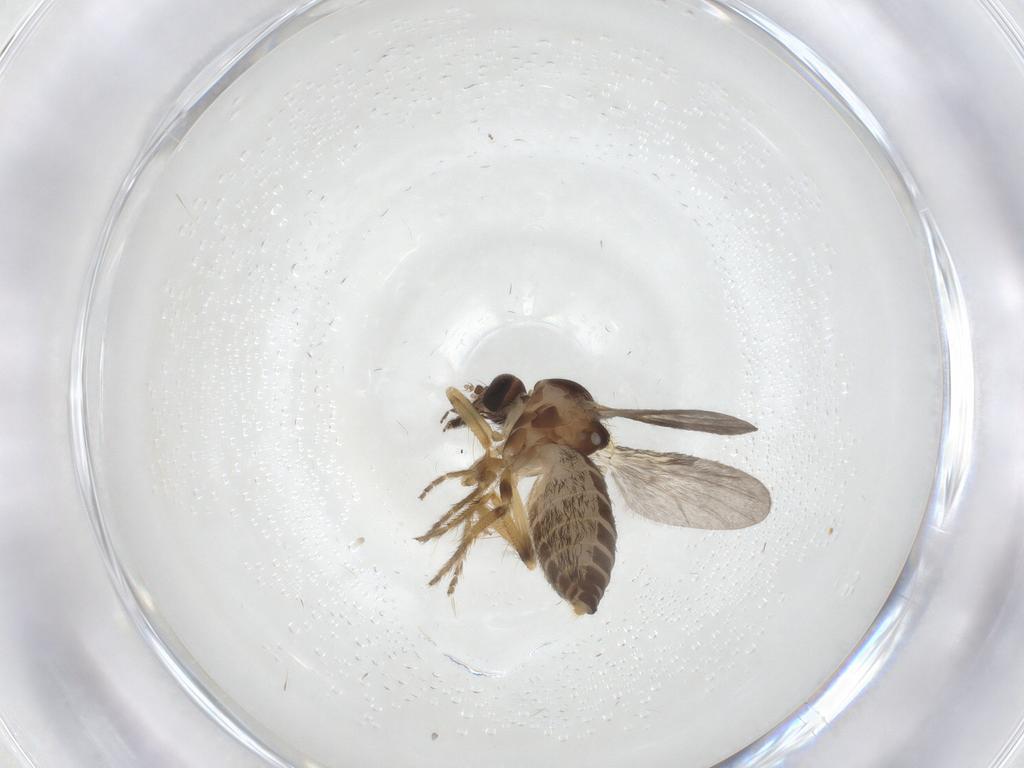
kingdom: Animalia
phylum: Arthropoda
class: Insecta
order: Diptera
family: Ceratopogonidae
